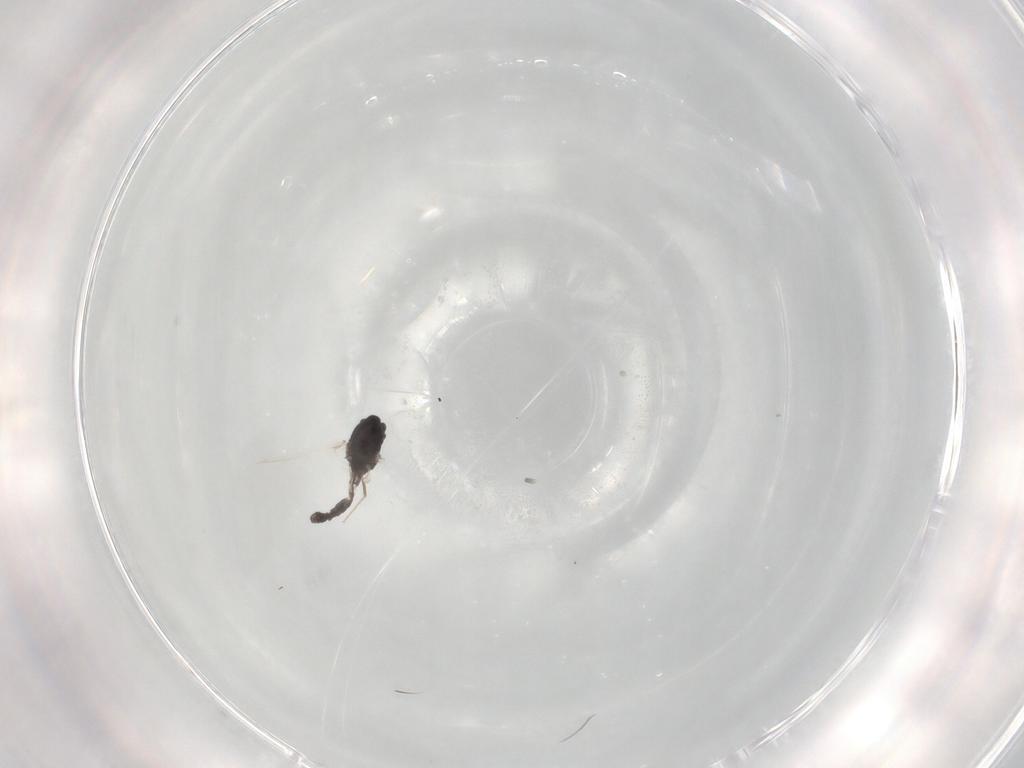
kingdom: Animalia
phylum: Arthropoda
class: Insecta
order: Diptera
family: Chironomidae
